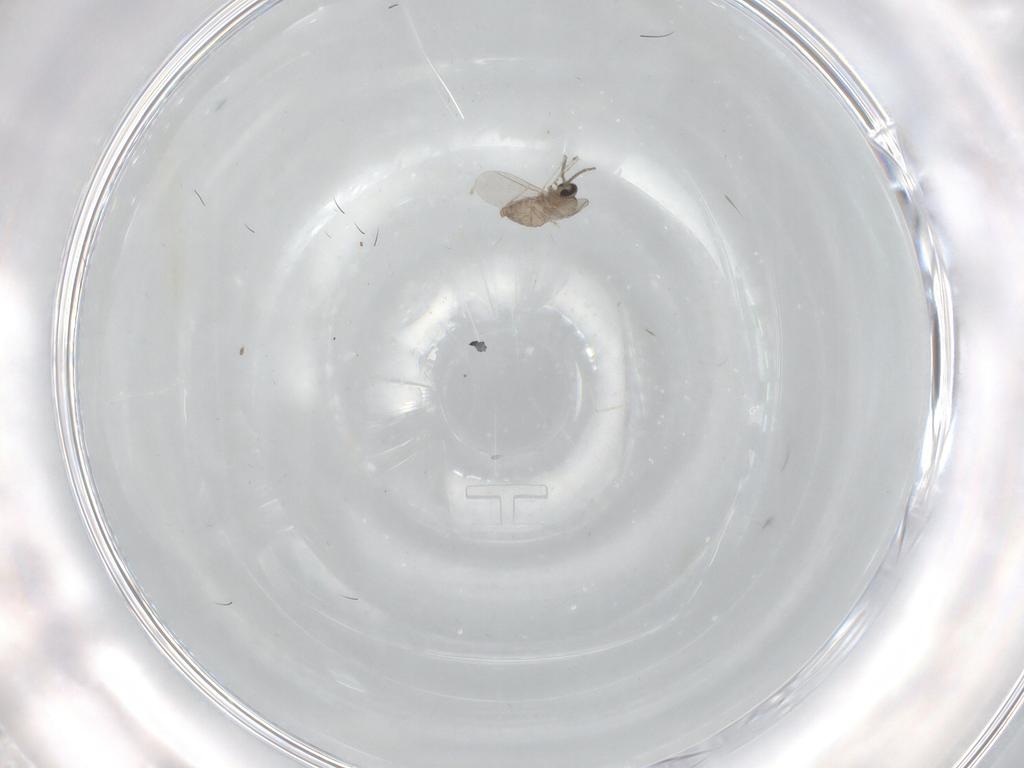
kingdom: Animalia
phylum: Arthropoda
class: Insecta
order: Diptera
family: Cecidomyiidae
